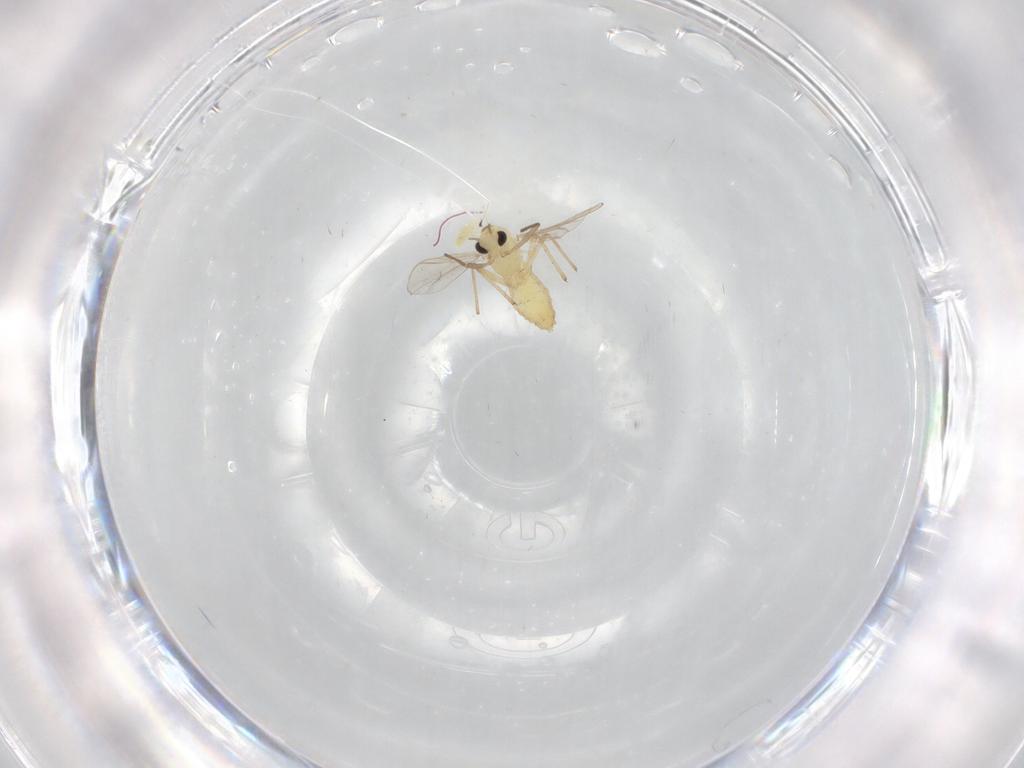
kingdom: Animalia
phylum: Arthropoda
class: Insecta
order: Diptera
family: Chironomidae
